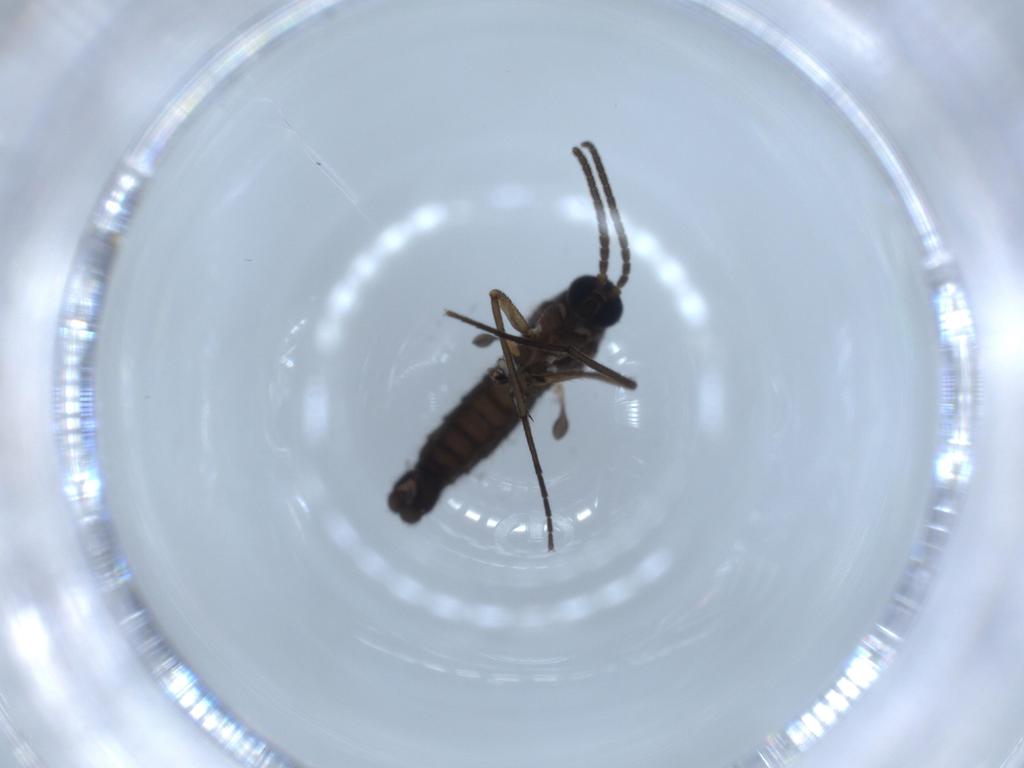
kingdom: Animalia
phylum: Arthropoda
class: Insecta
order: Diptera
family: Sciaridae
